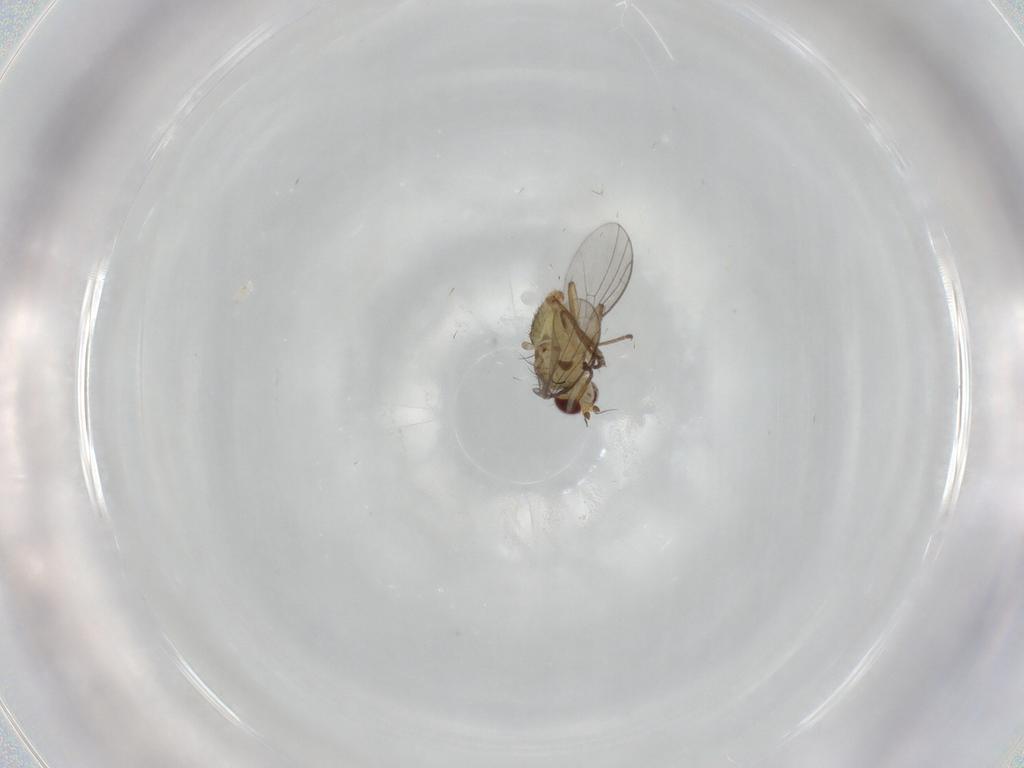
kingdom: Animalia
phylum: Arthropoda
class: Insecta
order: Diptera
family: Agromyzidae
